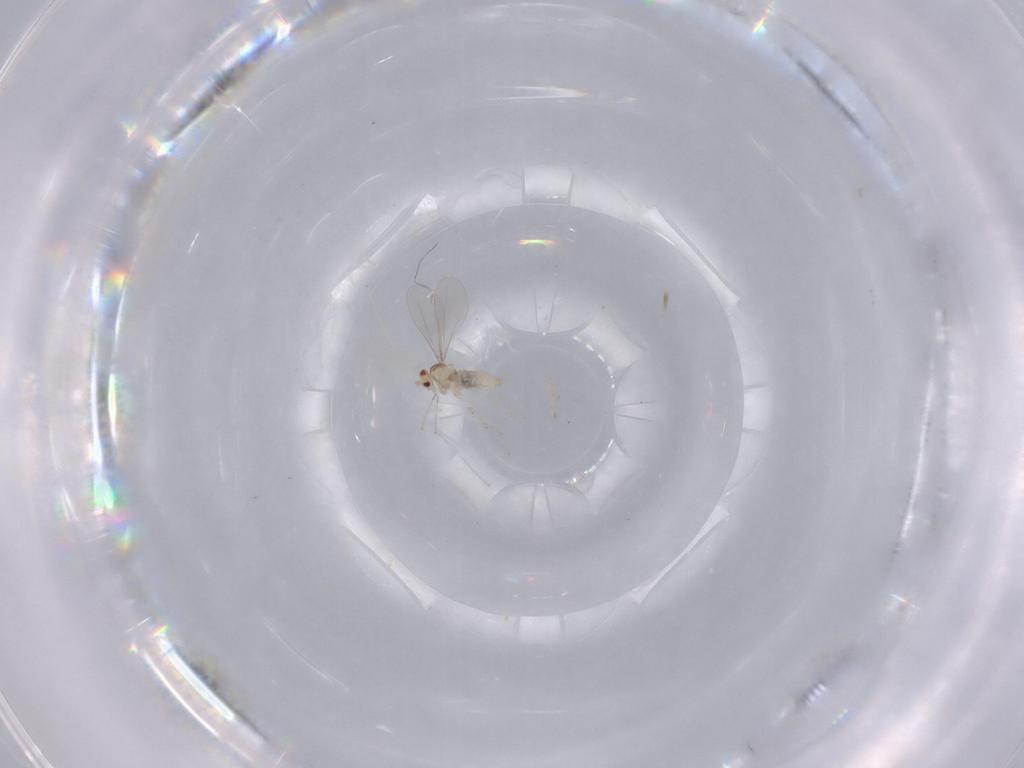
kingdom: Animalia
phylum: Arthropoda
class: Insecta
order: Diptera
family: Cecidomyiidae
